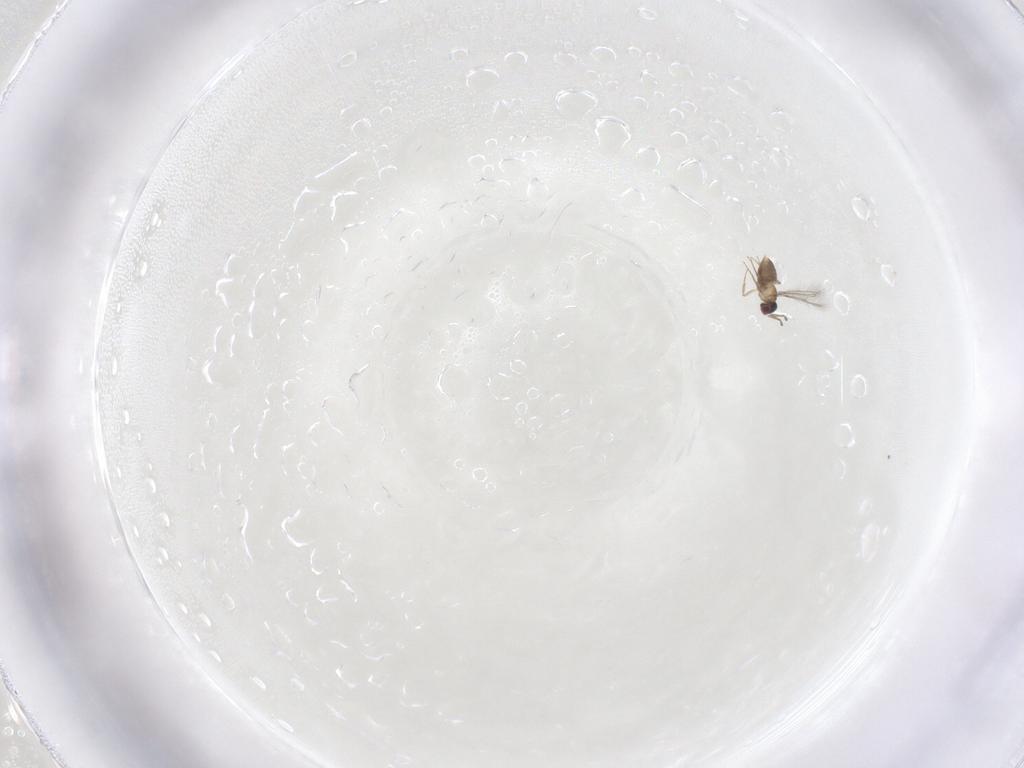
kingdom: Animalia
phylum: Arthropoda
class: Insecta
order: Hymenoptera
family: Mymaridae
